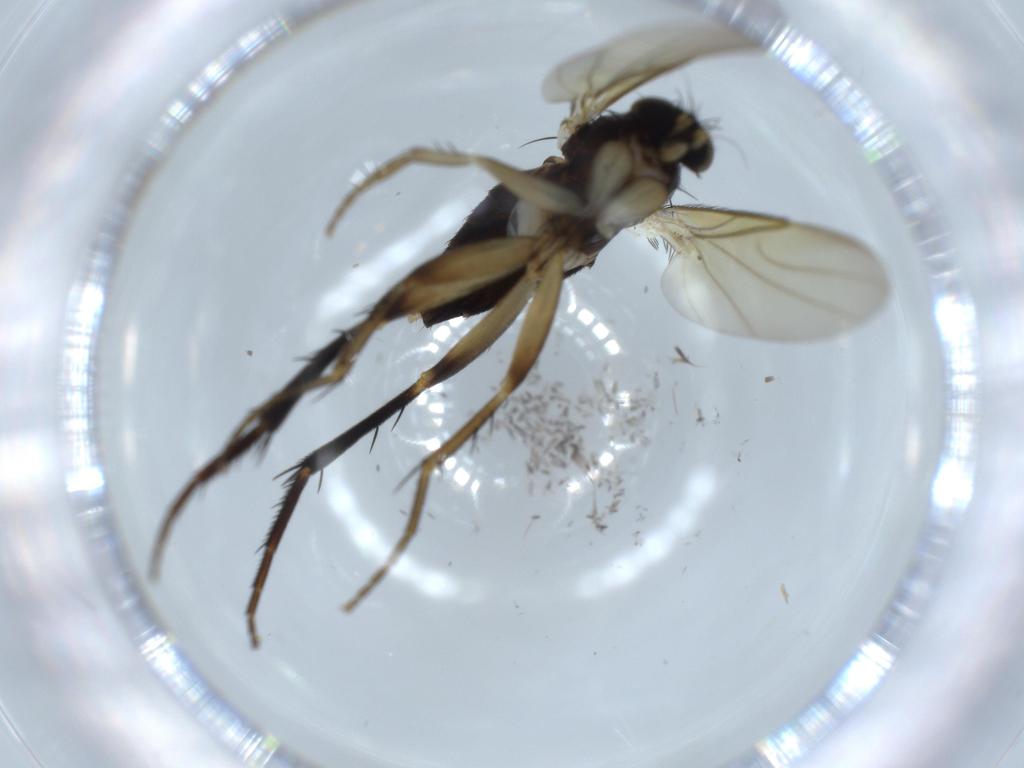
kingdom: Animalia
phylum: Arthropoda
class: Insecta
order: Diptera
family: Phoridae
